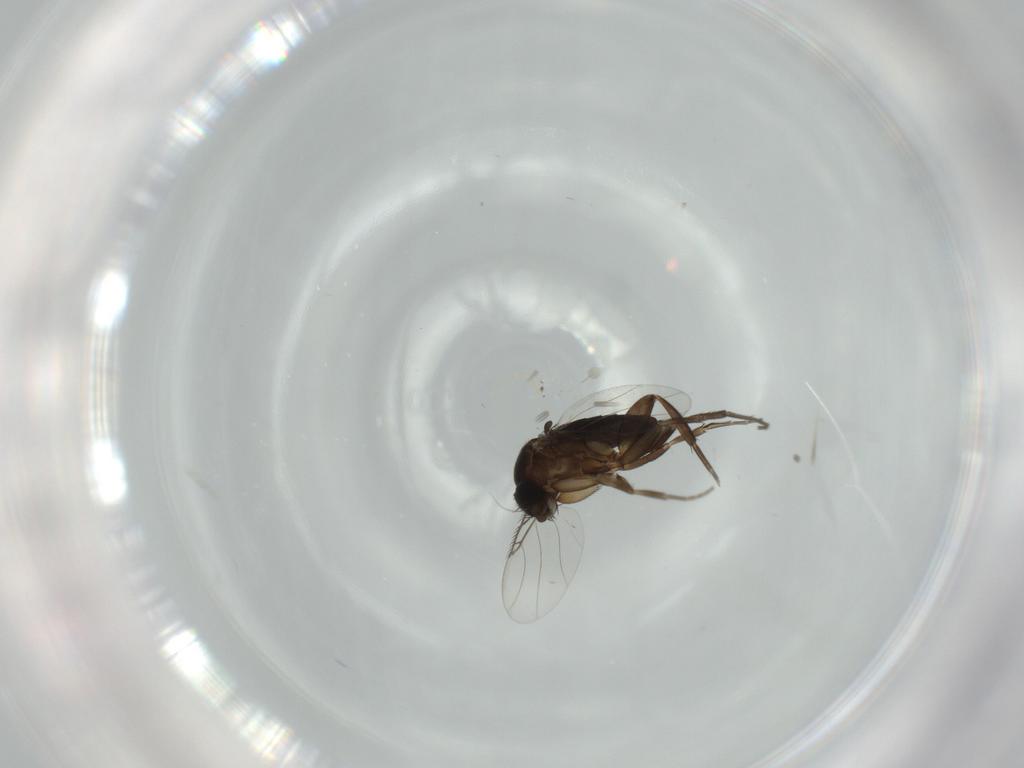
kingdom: Animalia
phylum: Arthropoda
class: Insecta
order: Diptera
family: Phoridae
